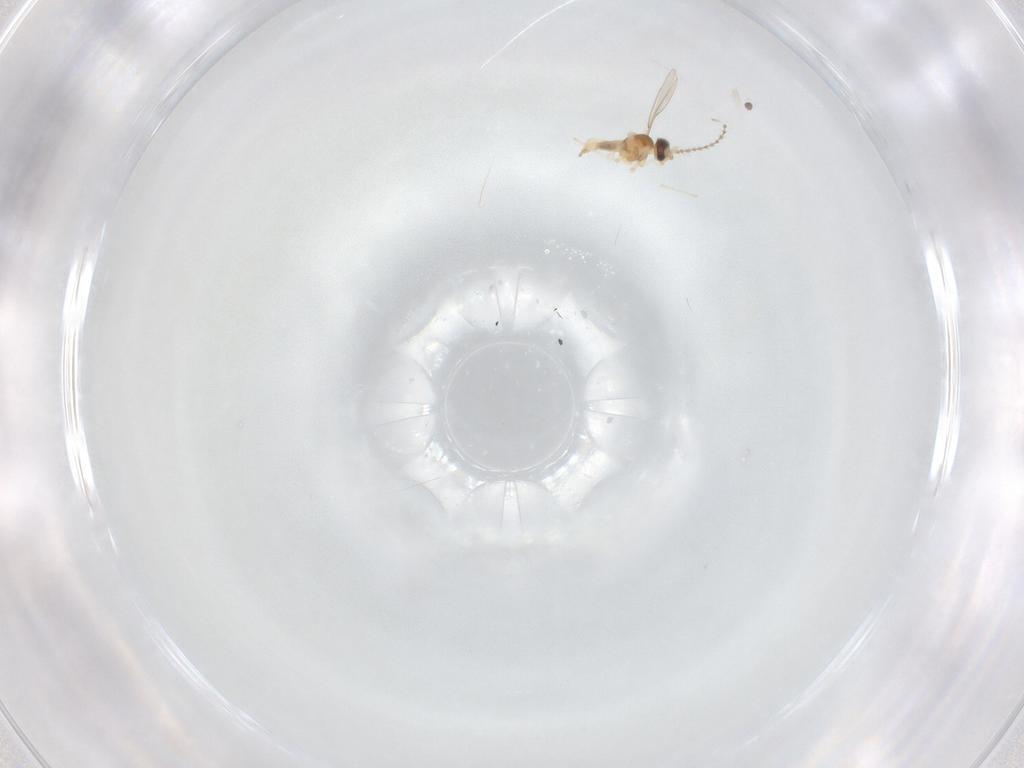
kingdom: Animalia
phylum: Arthropoda
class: Insecta
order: Diptera
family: Cecidomyiidae
